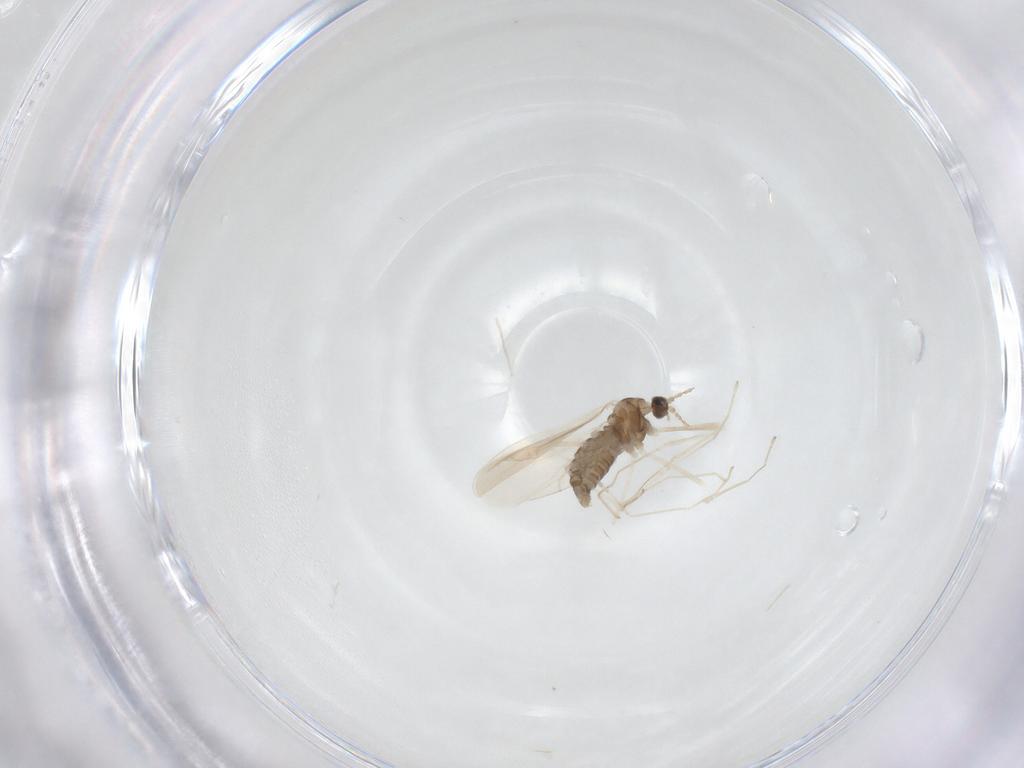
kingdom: Animalia
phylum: Arthropoda
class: Insecta
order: Diptera
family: Cecidomyiidae
